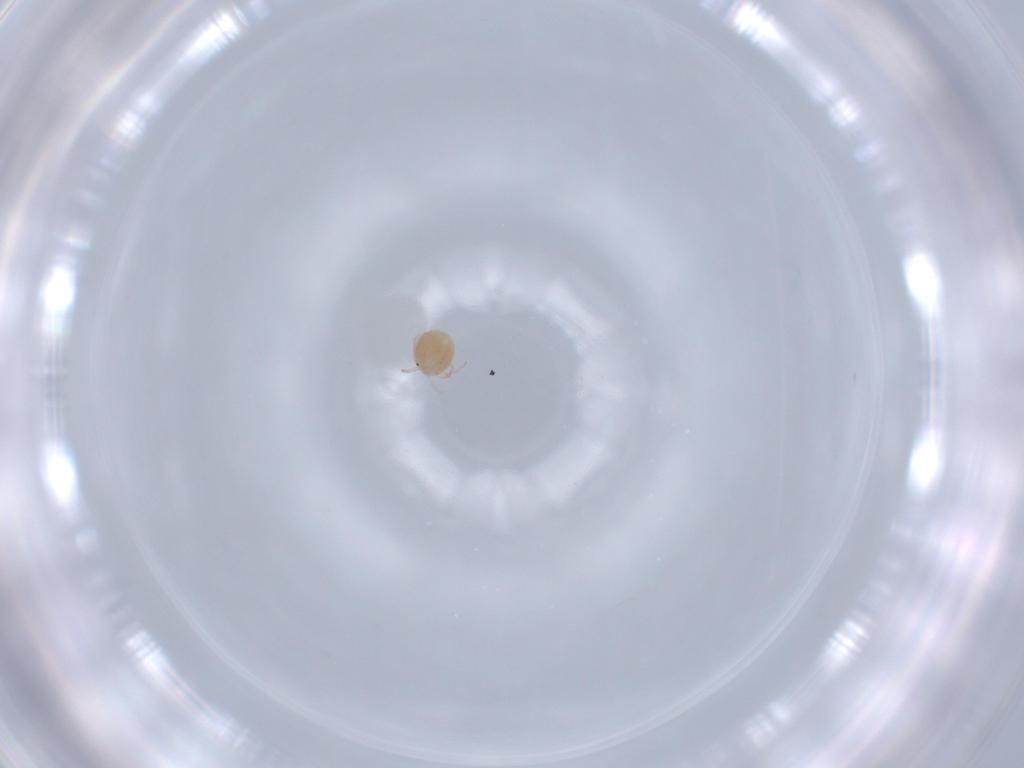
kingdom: Animalia
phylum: Arthropoda
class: Arachnida
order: Trombidiformes
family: Lebertiidae
